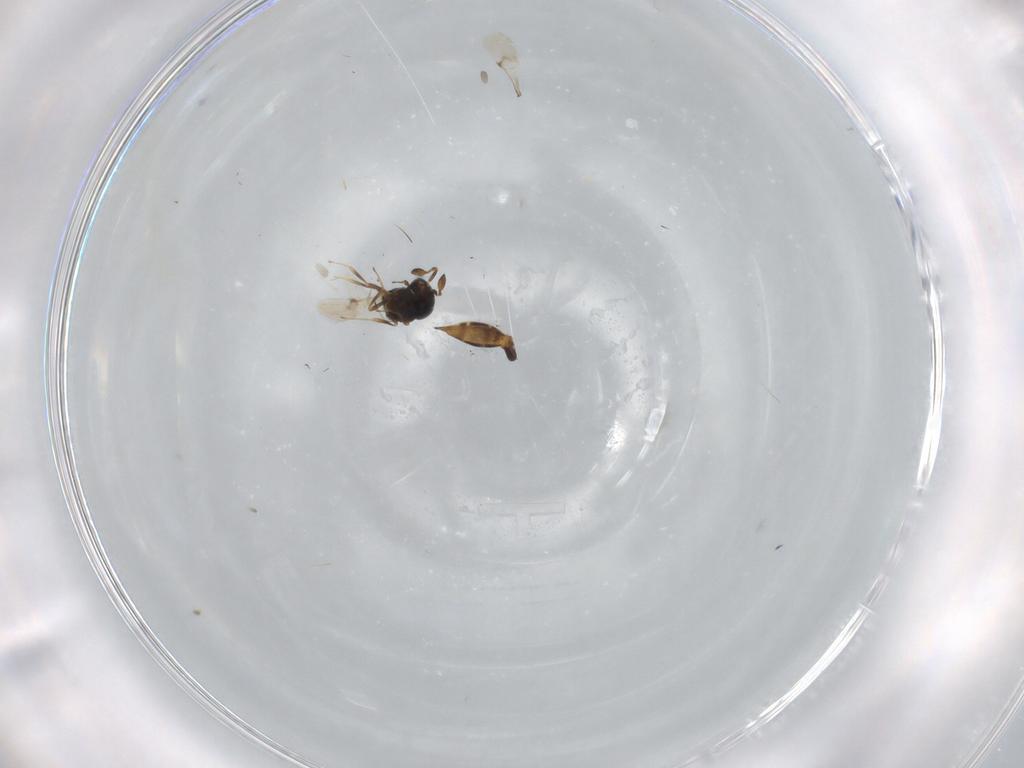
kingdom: Animalia
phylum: Arthropoda
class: Insecta
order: Hymenoptera
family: Scelionidae
